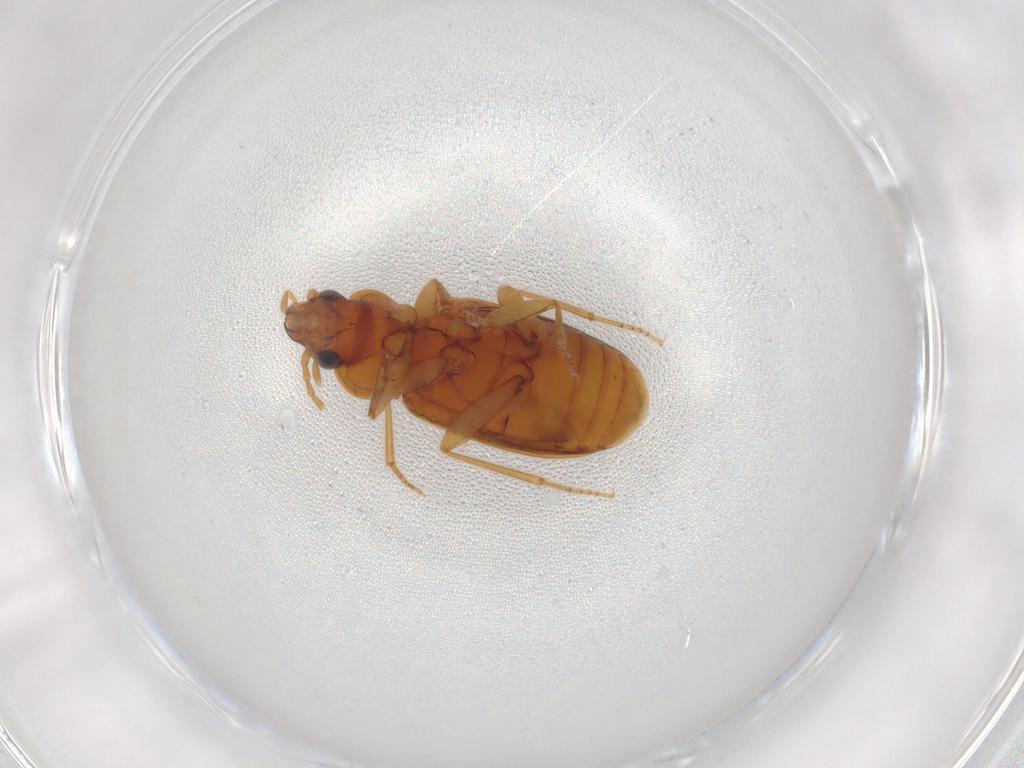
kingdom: Animalia
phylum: Arthropoda
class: Insecta
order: Coleoptera
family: Carabidae
